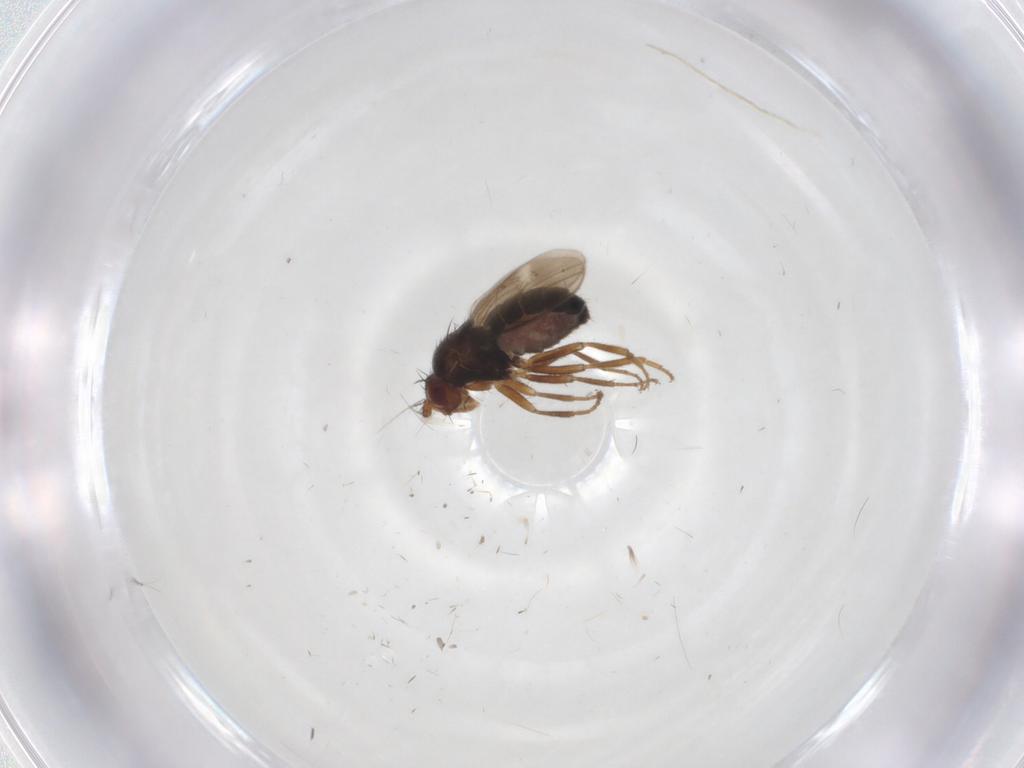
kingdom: Animalia
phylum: Arthropoda
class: Insecta
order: Diptera
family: Sphaeroceridae
